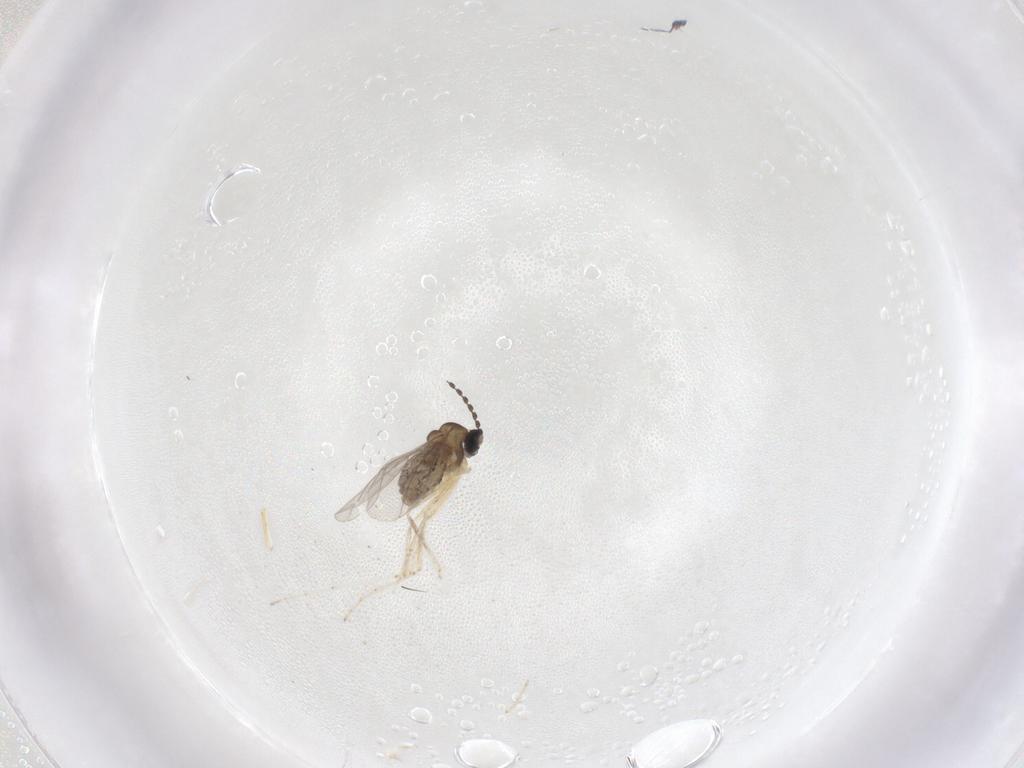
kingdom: Animalia
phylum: Arthropoda
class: Insecta
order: Diptera
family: Cecidomyiidae
